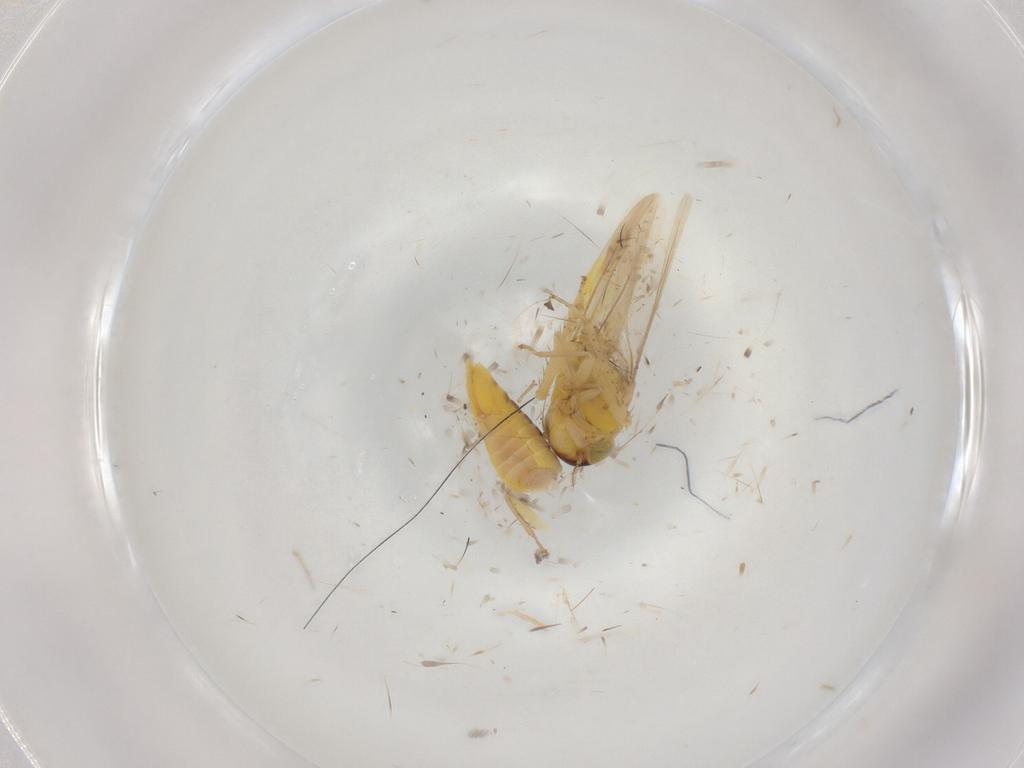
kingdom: Animalia
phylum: Arthropoda
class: Insecta
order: Hemiptera
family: Cicadellidae
